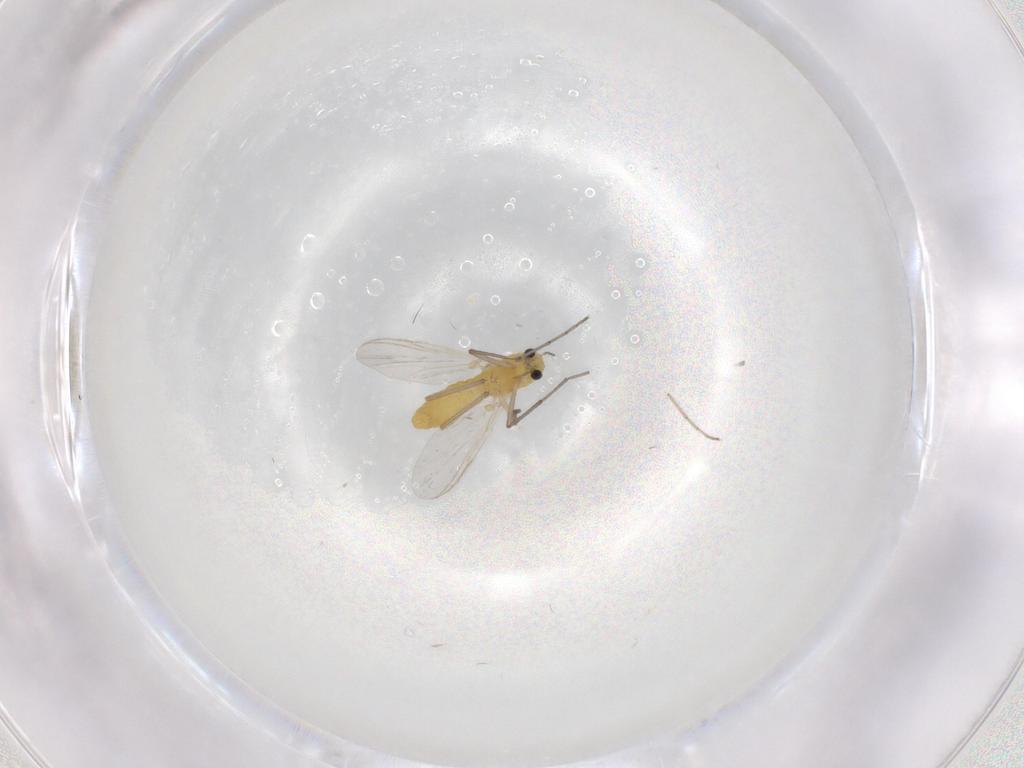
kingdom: Animalia
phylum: Arthropoda
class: Insecta
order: Diptera
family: Chironomidae
